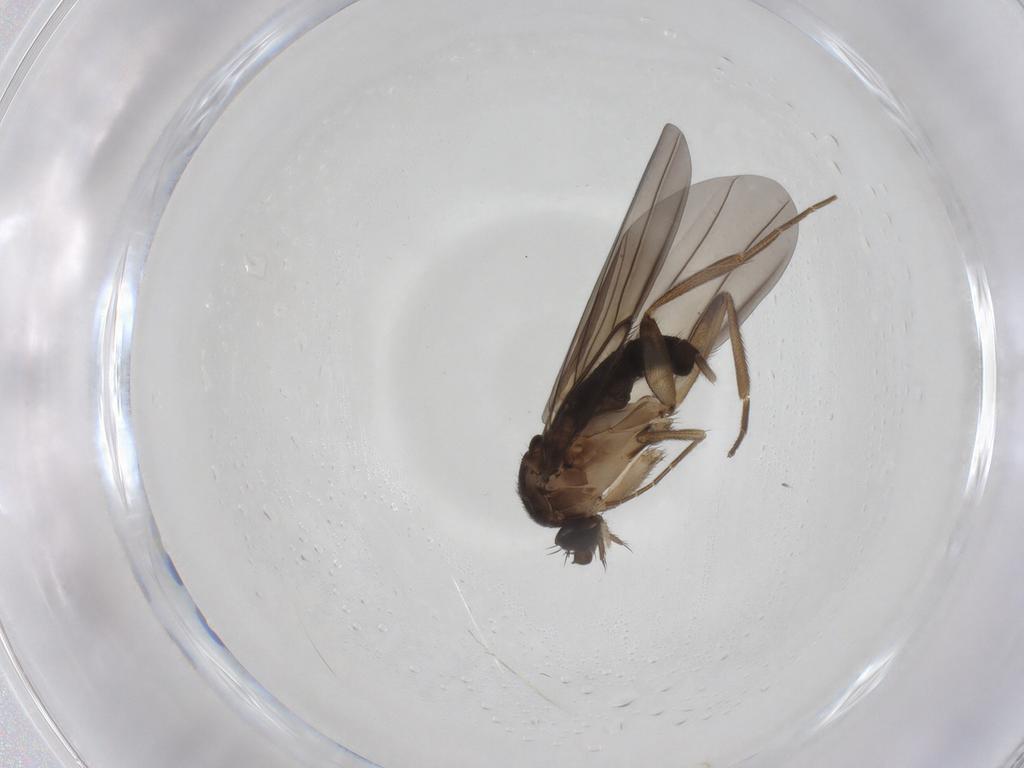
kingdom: Animalia
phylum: Arthropoda
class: Insecta
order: Diptera
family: Phoridae
